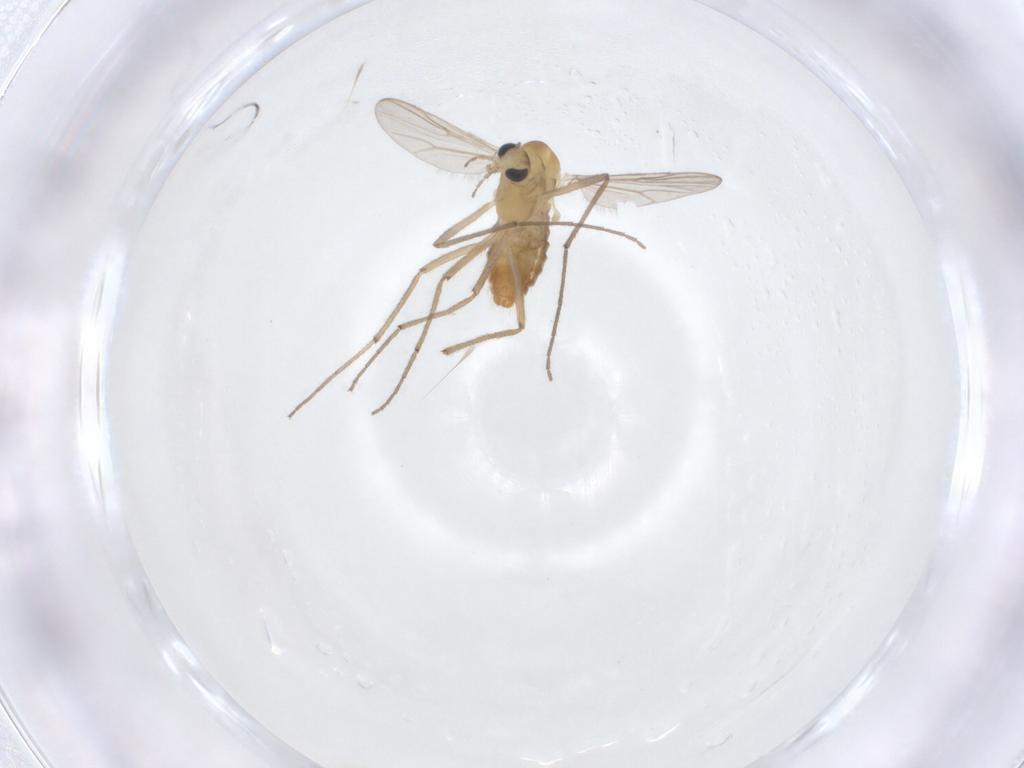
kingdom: Animalia
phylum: Arthropoda
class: Insecta
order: Diptera
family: Chironomidae
